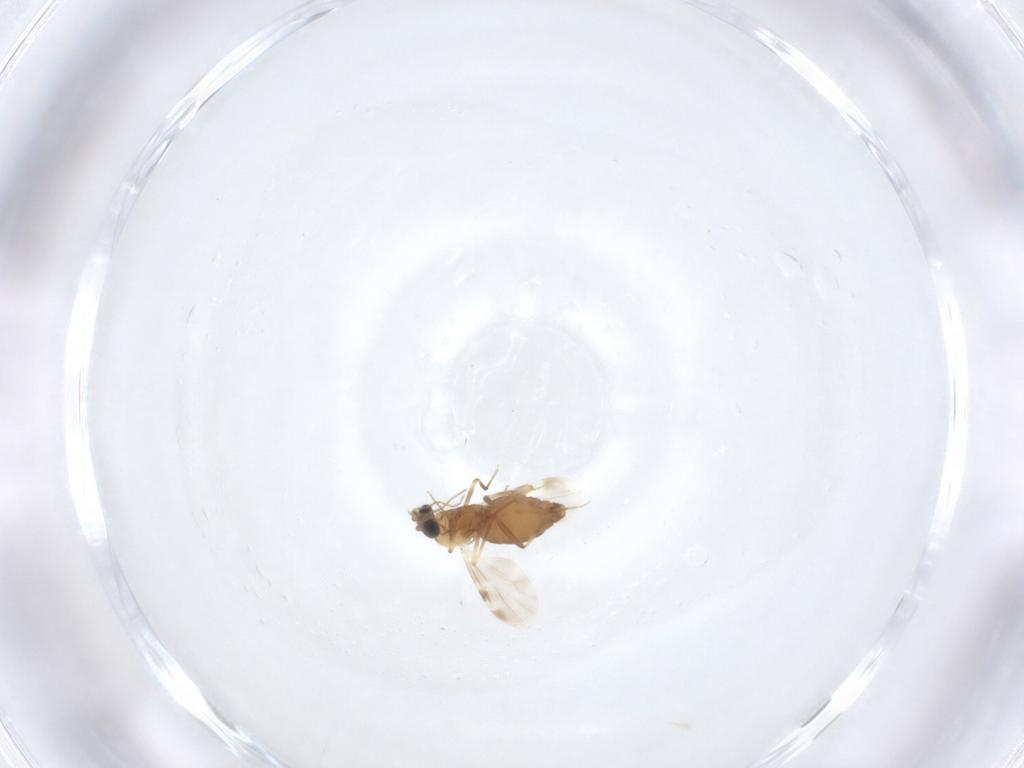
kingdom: Animalia
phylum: Arthropoda
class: Insecta
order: Diptera
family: Ceratopogonidae
